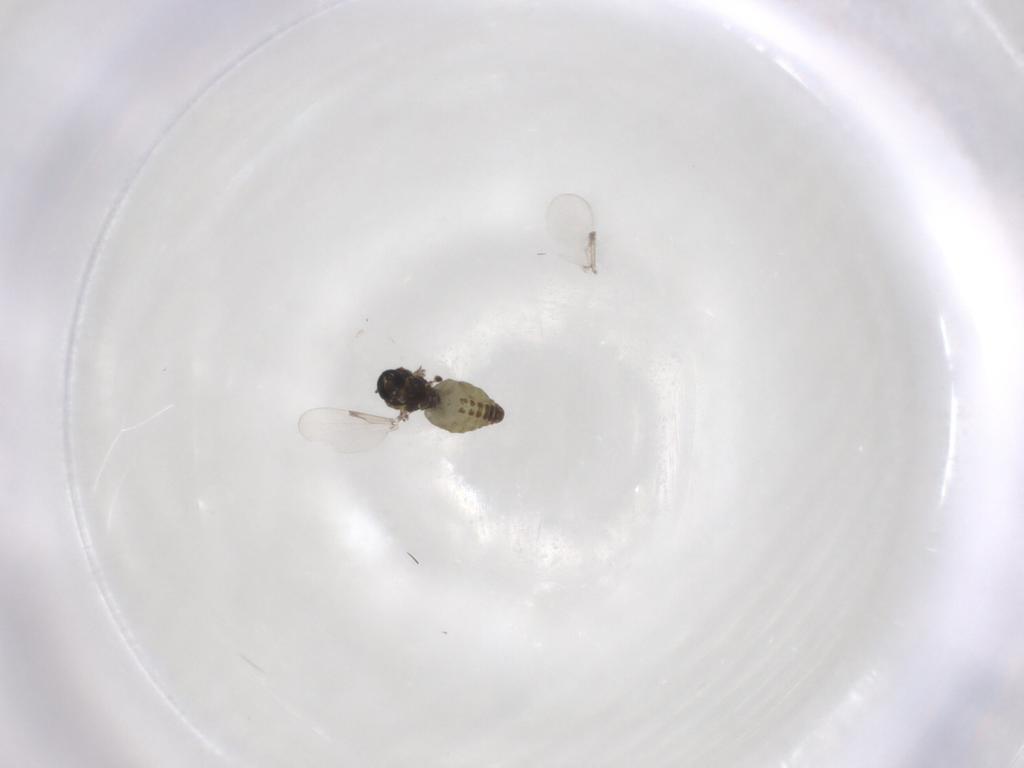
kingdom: Animalia
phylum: Arthropoda
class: Insecta
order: Diptera
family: Ceratopogonidae
